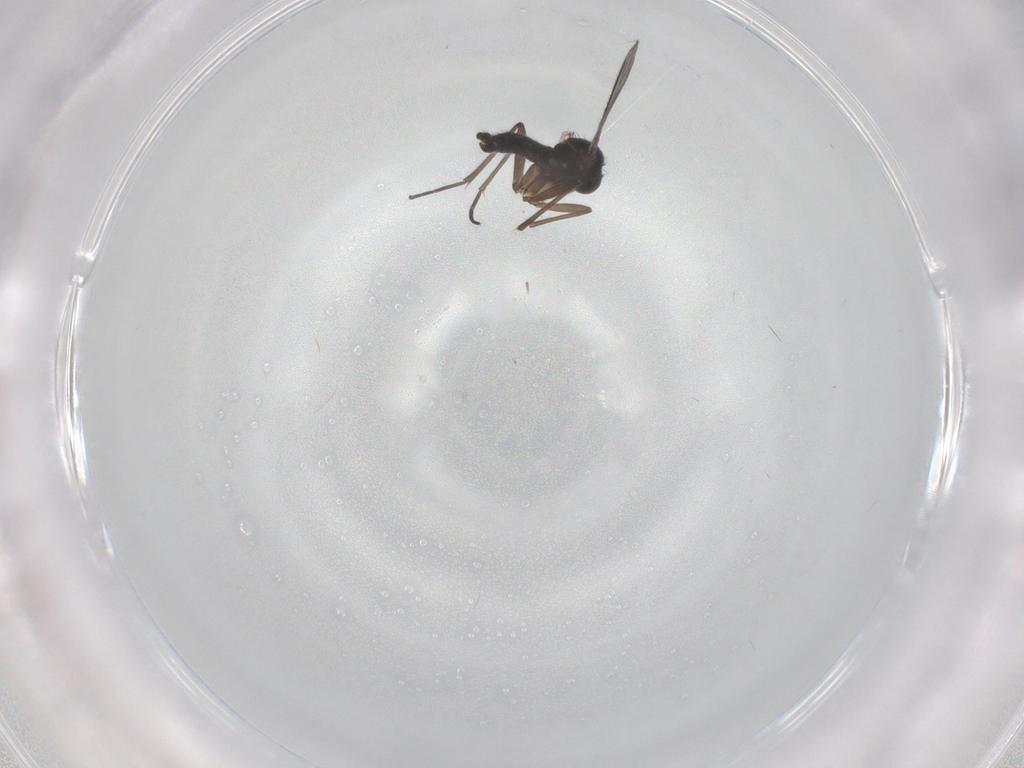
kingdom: Animalia
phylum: Arthropoda
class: Insecta
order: Diptera
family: Sciaridae
